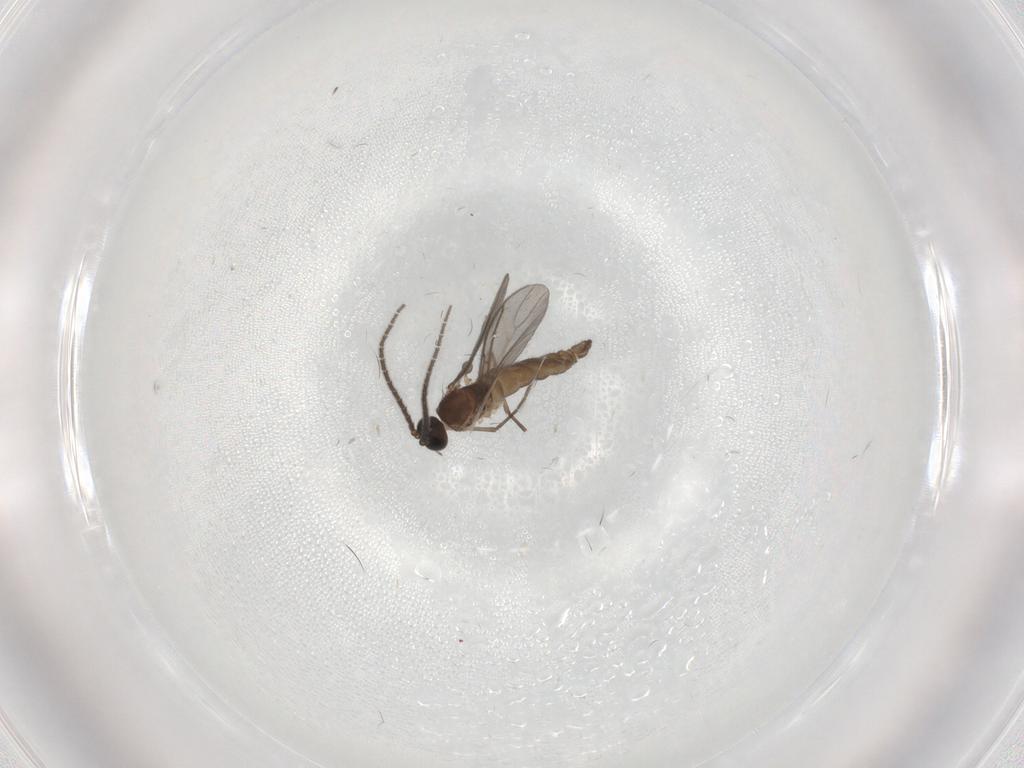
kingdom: Animalia
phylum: Arthropoda
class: Insecta
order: Diptera
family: Sciaridae
